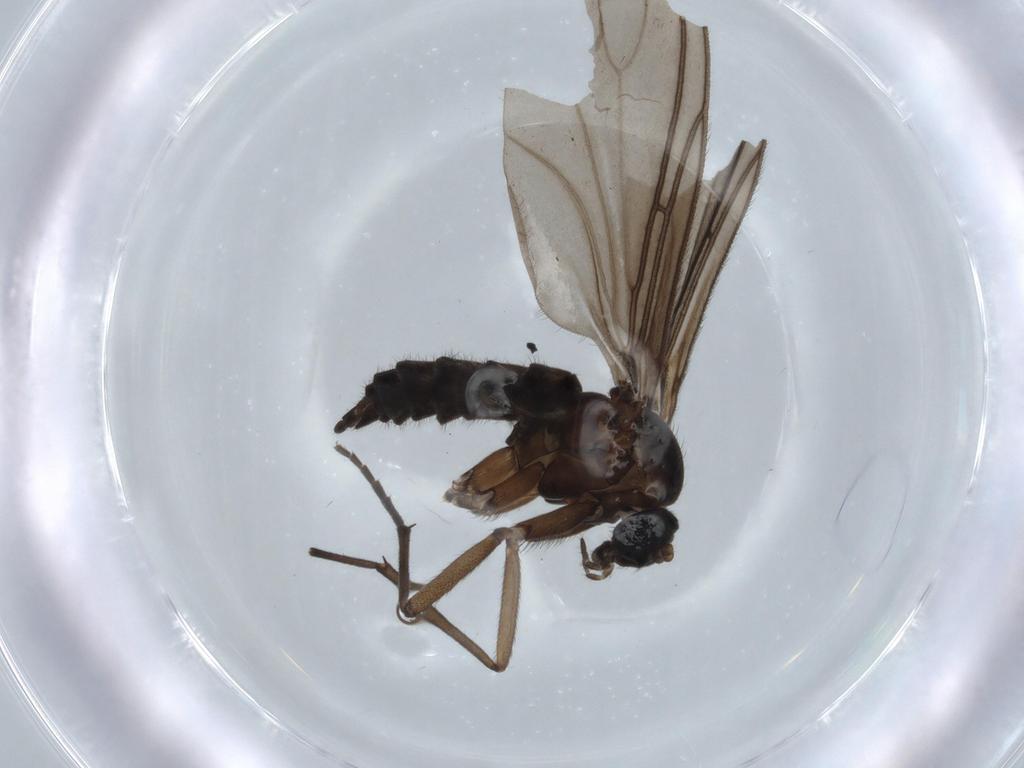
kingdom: Animalia
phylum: Arthropoda
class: Insecta
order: Diptera
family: Sciaridae
